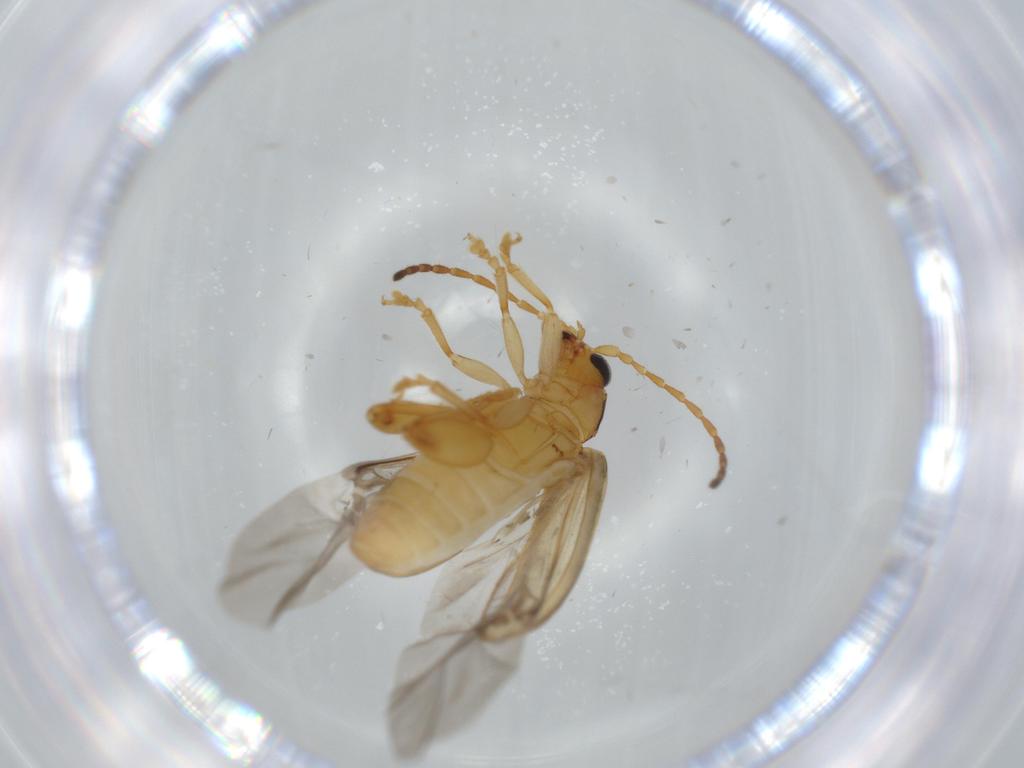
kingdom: Animalia
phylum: Arthropoda
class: Insecta
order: Coleoptera
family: Chrysomelidae
